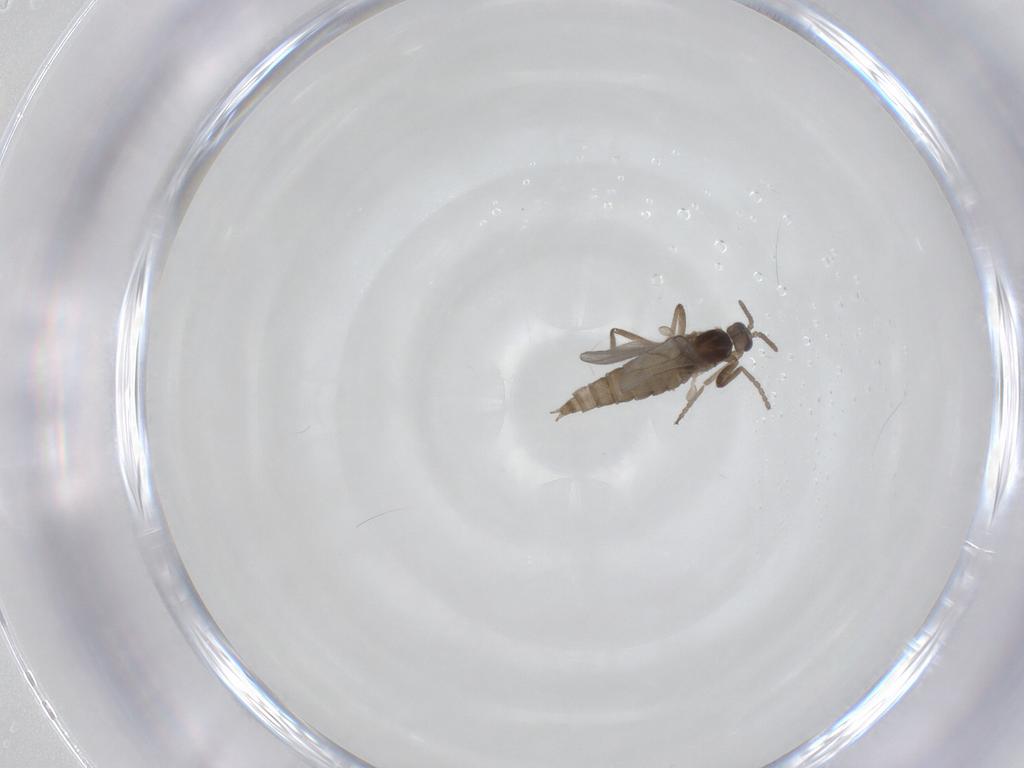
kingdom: Animalia
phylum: Arthropoda
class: Insecta
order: Diptera
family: Cecidomyiidae
